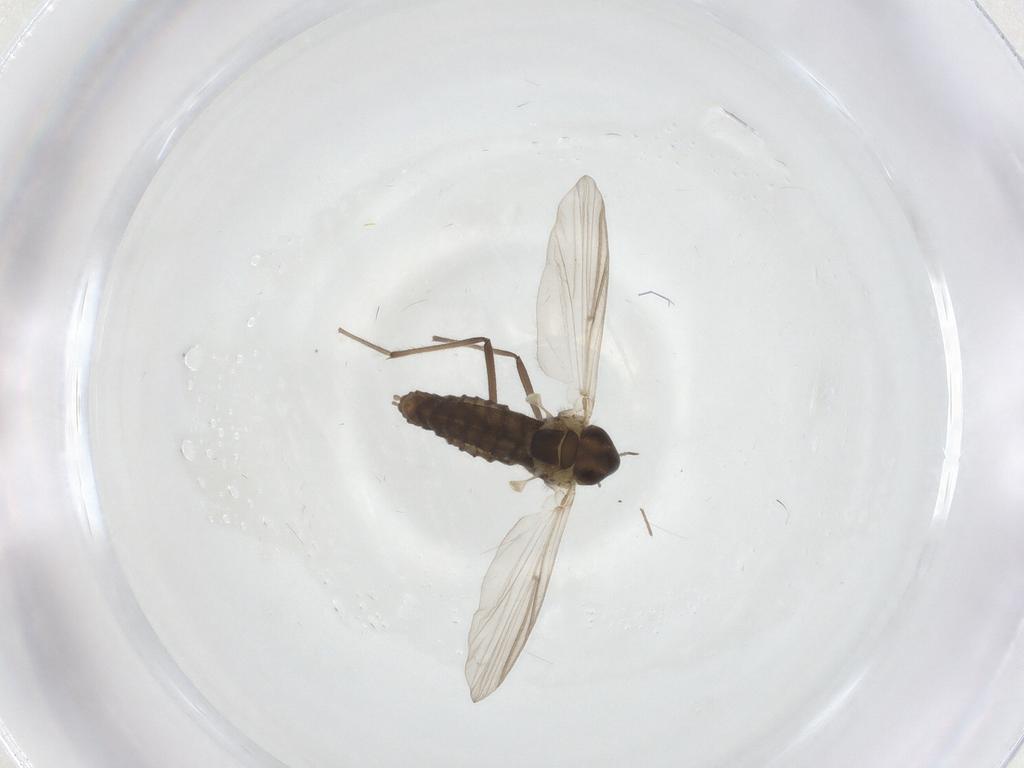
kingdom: Animalia
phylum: Arthropoda
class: Insecta
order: Diptera
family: Chironomidae
